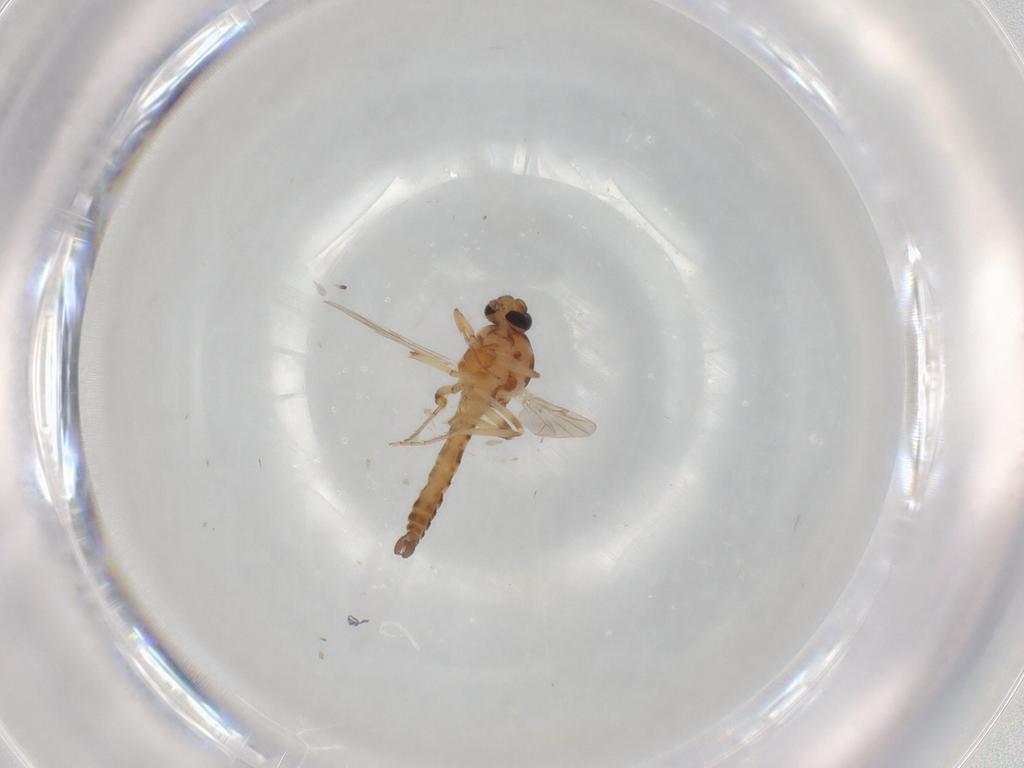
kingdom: Animalia
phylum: Arthropoda
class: Insecta
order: Diptera
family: Ceratopogonidae
